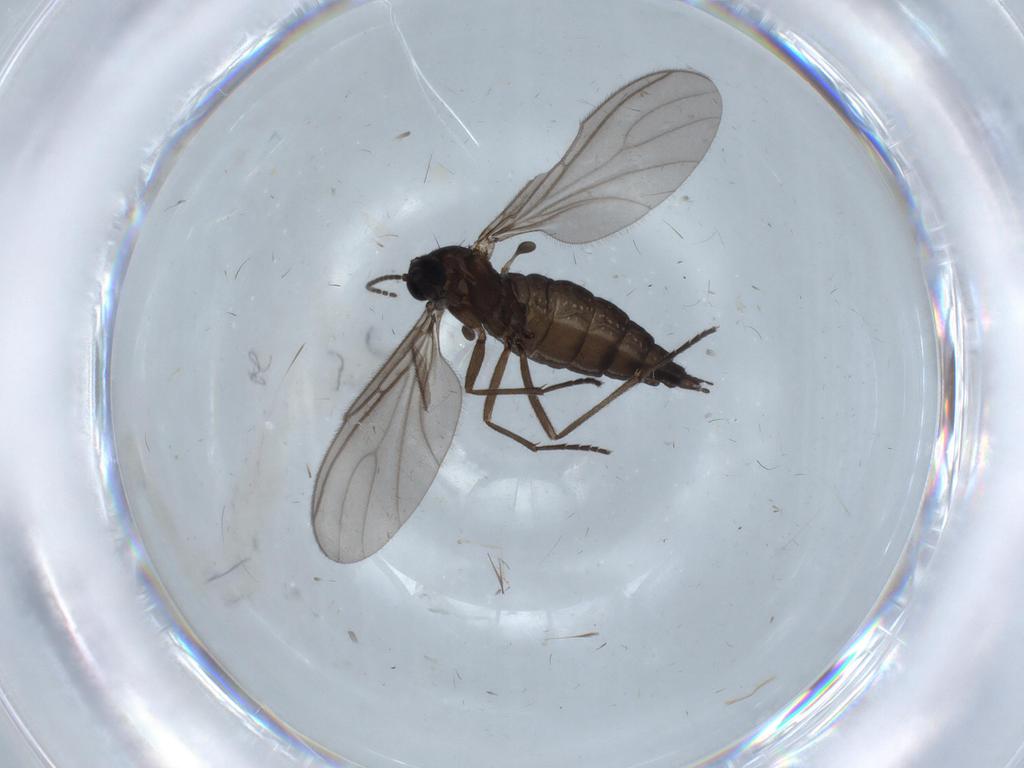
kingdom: Animalia
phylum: Arthropoda
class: Insecta
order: Diptera
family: Sciaridae
